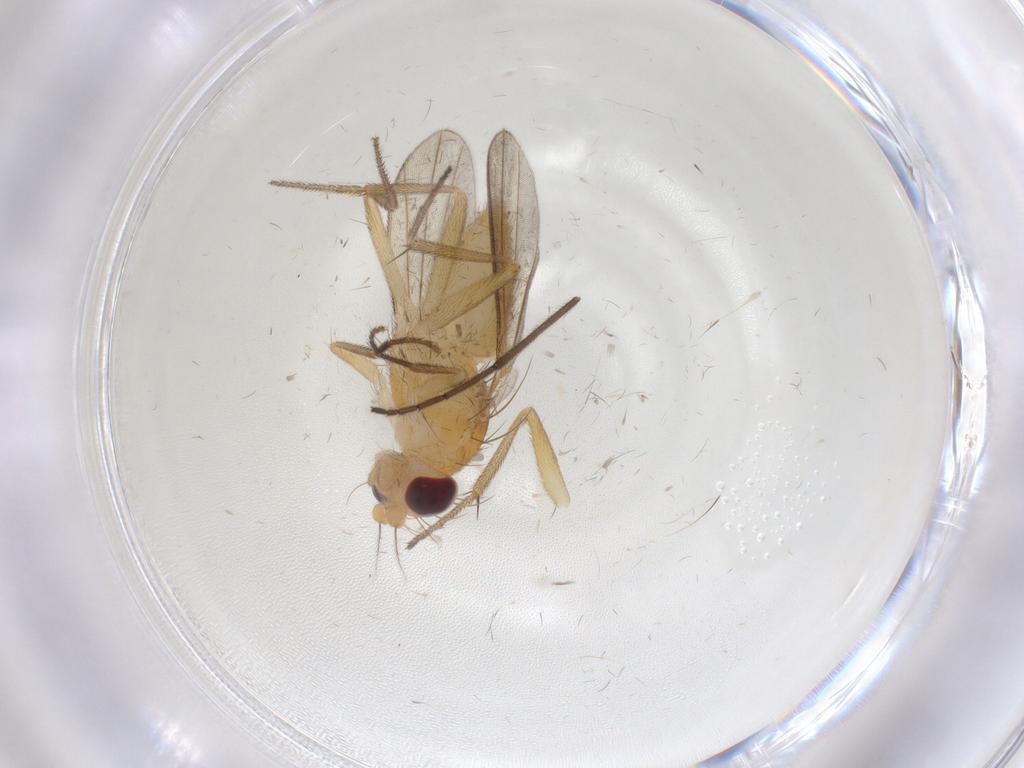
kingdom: Animalia
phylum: Arthropoda
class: Insecta
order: Diptera
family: Clusiidae
